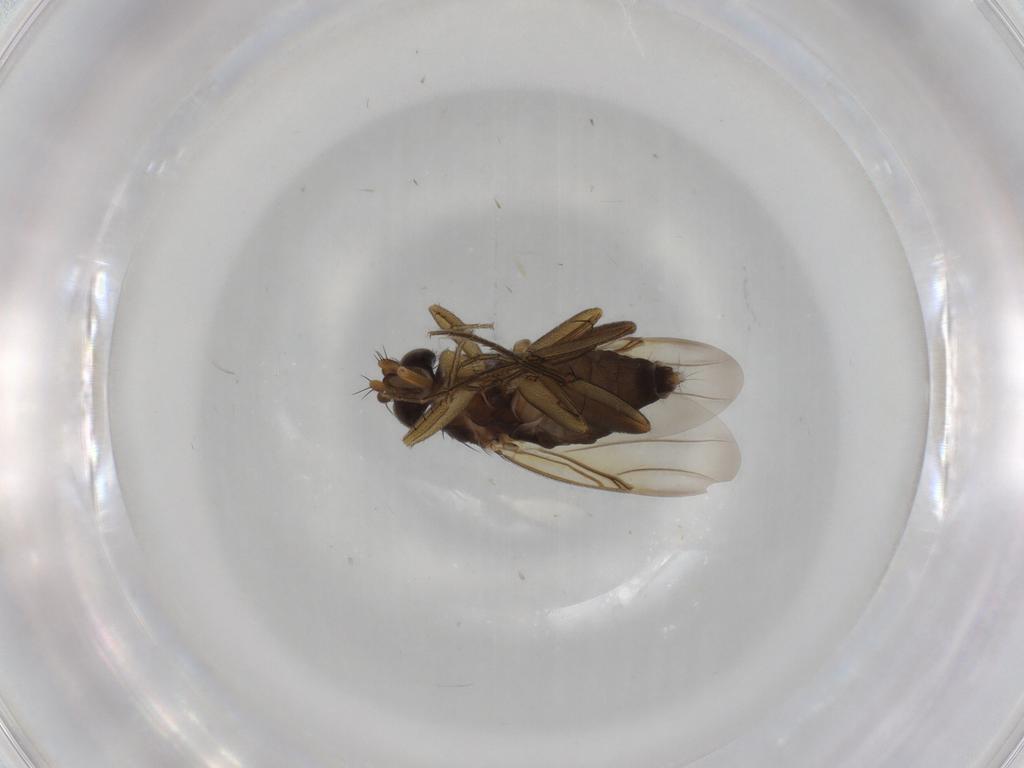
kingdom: Animalia
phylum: Arthropoda
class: Insecta
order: Diptera
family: Phoridae
